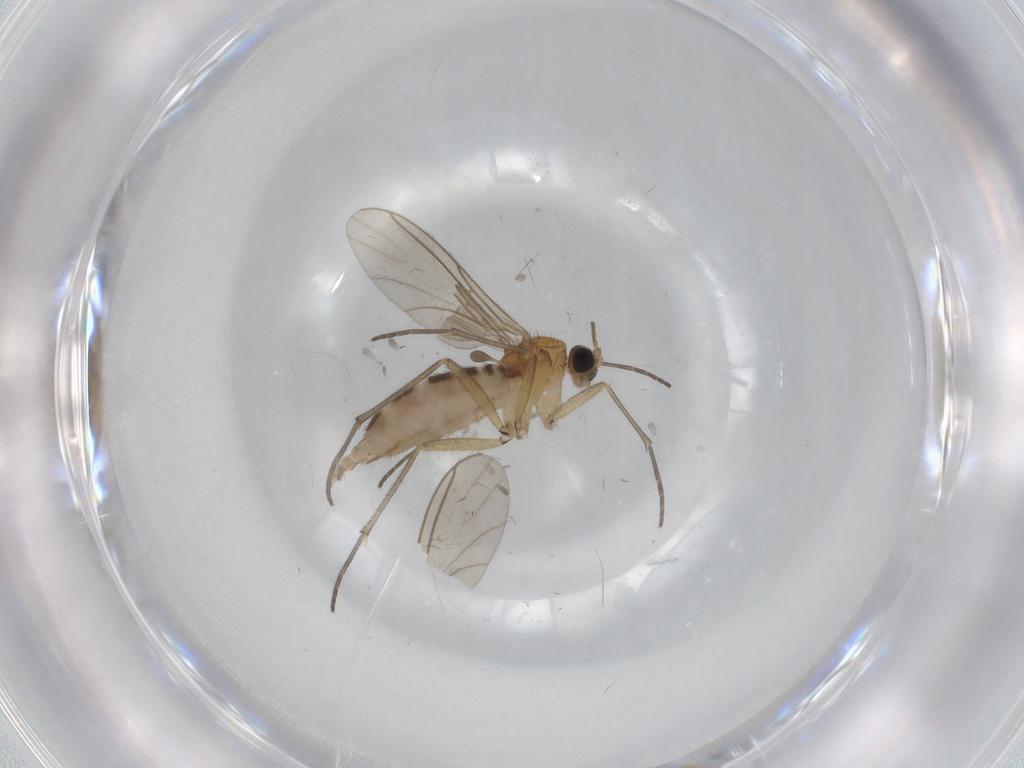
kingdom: Animalia
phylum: Arthropoda
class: Insecta
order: Diptera
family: Sciaridae
